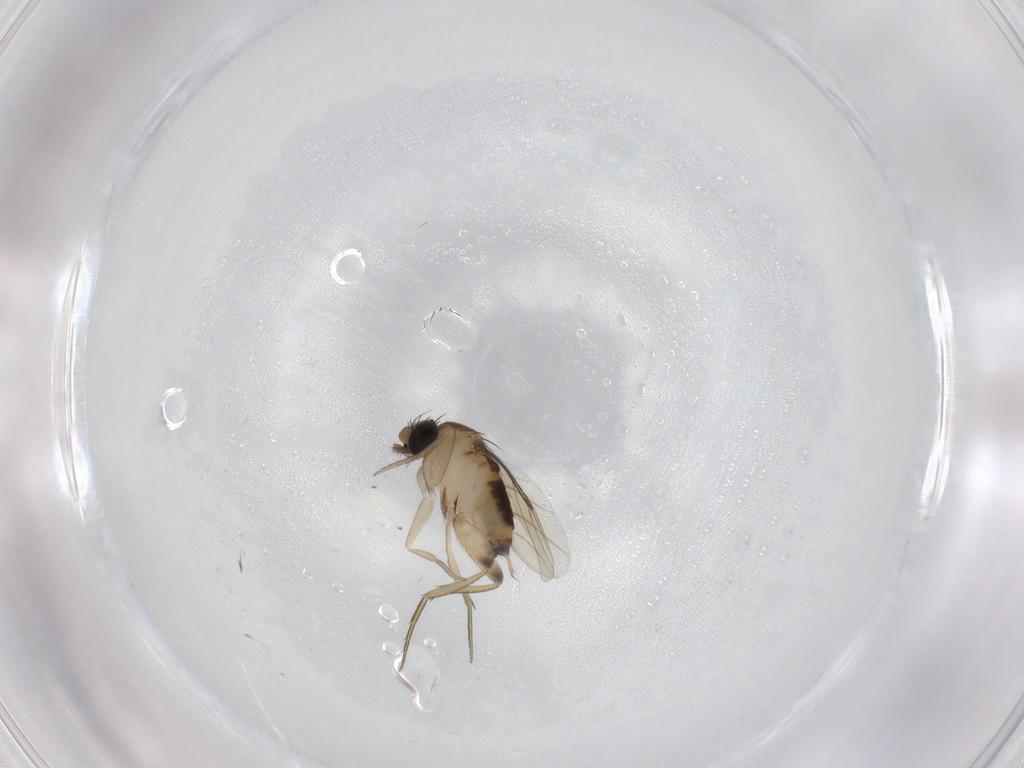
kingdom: Animalia
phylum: Arthropoda
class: Insecta
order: Diptera
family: Phoridae
